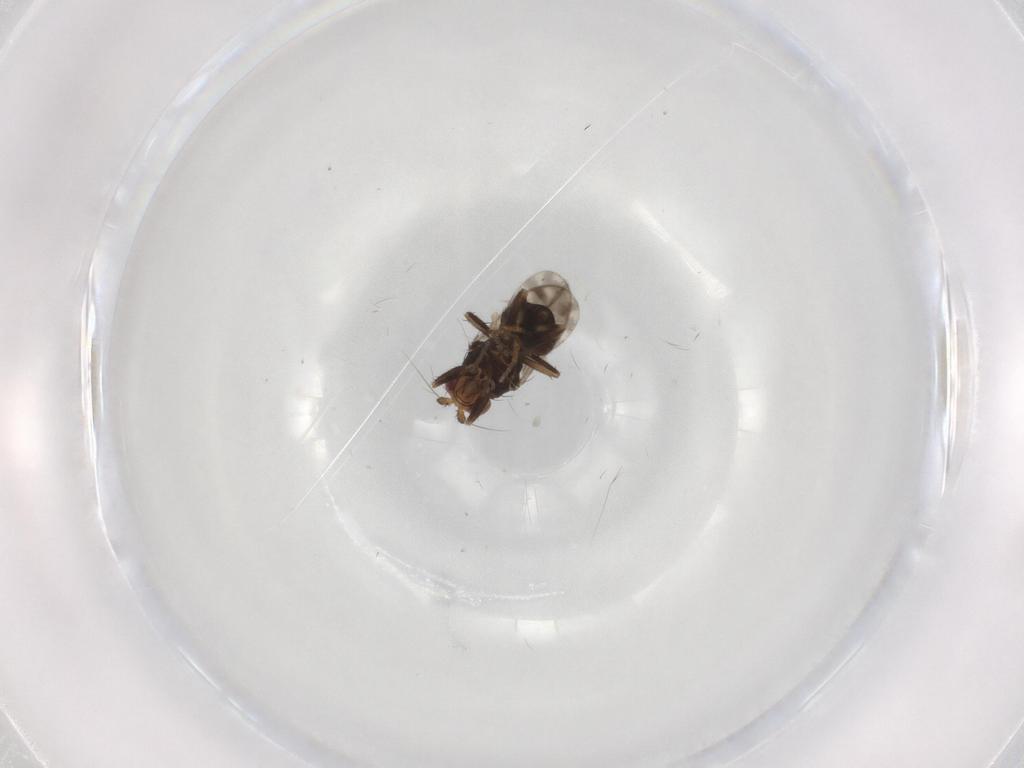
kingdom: Animalia
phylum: Arthropoda
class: Insecta
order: Diptera
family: Sphaeroceridae
